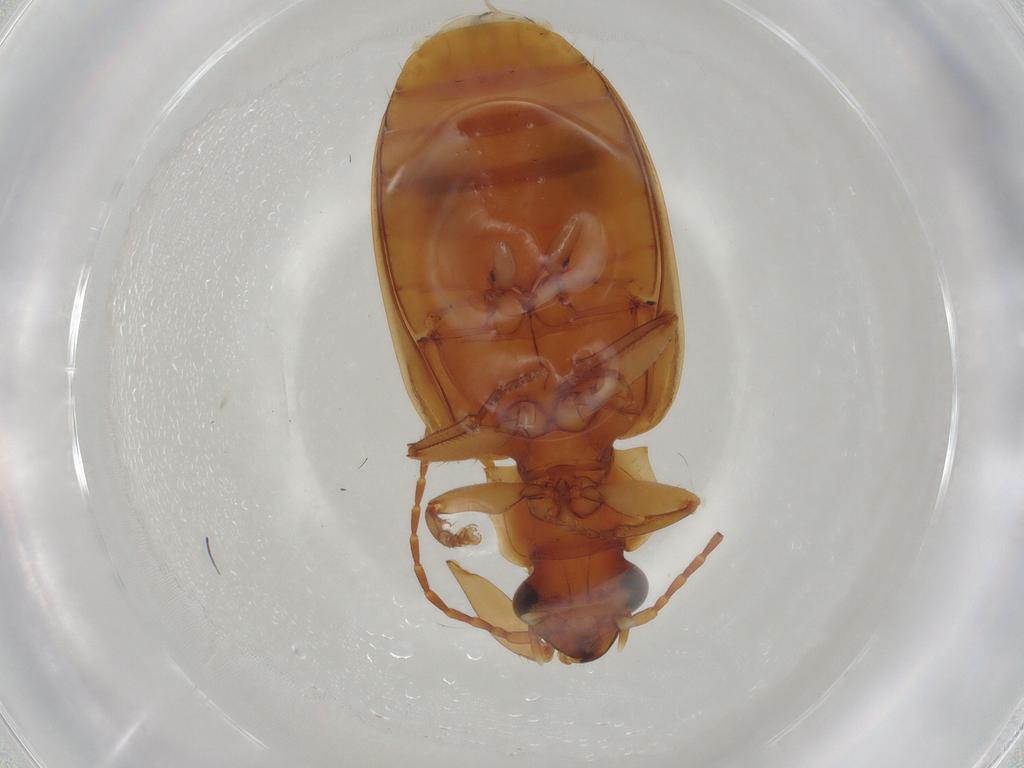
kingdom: Animalia
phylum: Arthropoda
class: Insecta
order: Coleoptera
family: Carabidae
